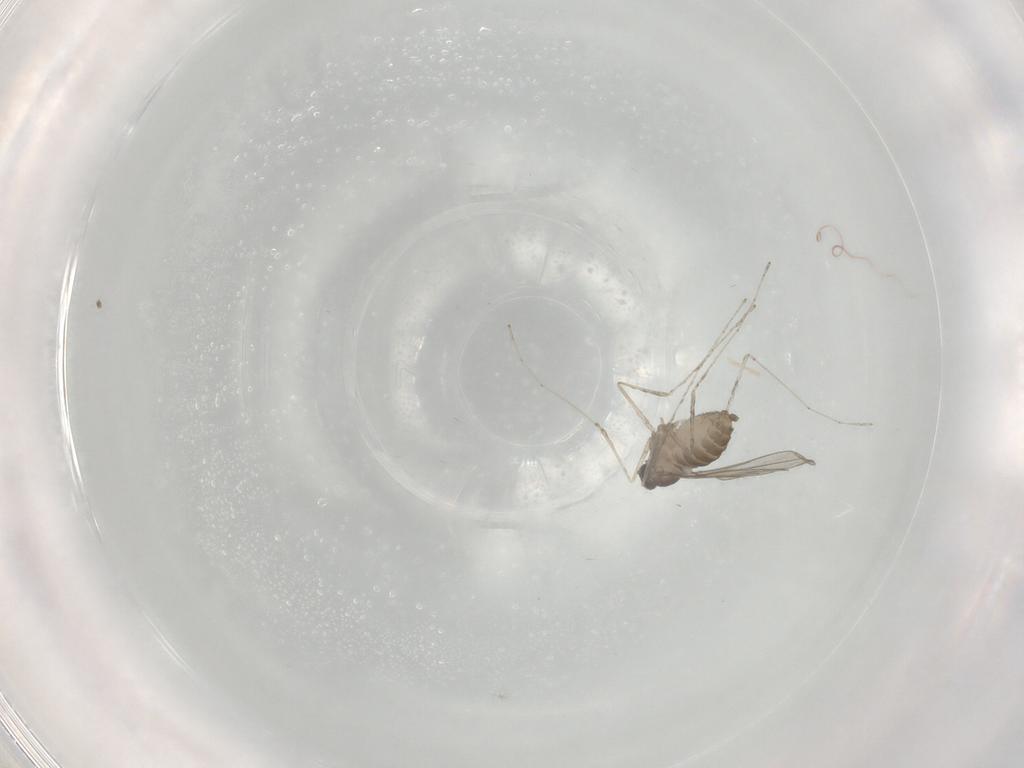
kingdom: Animalia
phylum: Arthropoda
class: Insecta
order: Diptera
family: Cecidomyiidae
